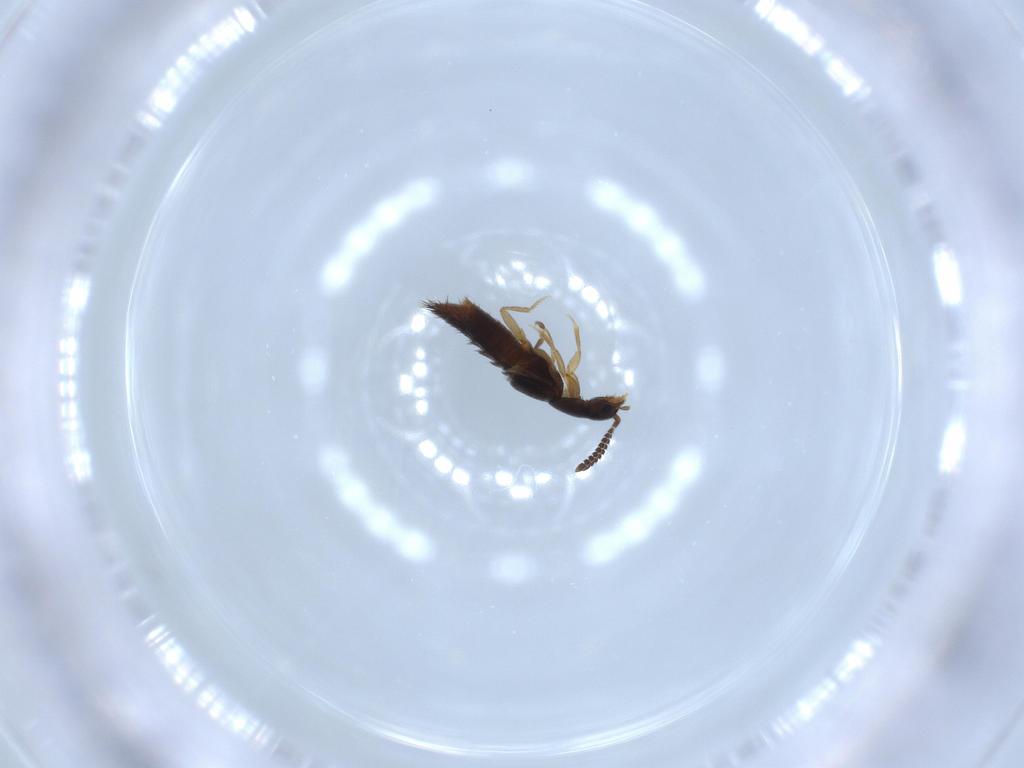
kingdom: Animalia
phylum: Arthropoda
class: Insecta
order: Coleoptera
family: Staphylinidae
